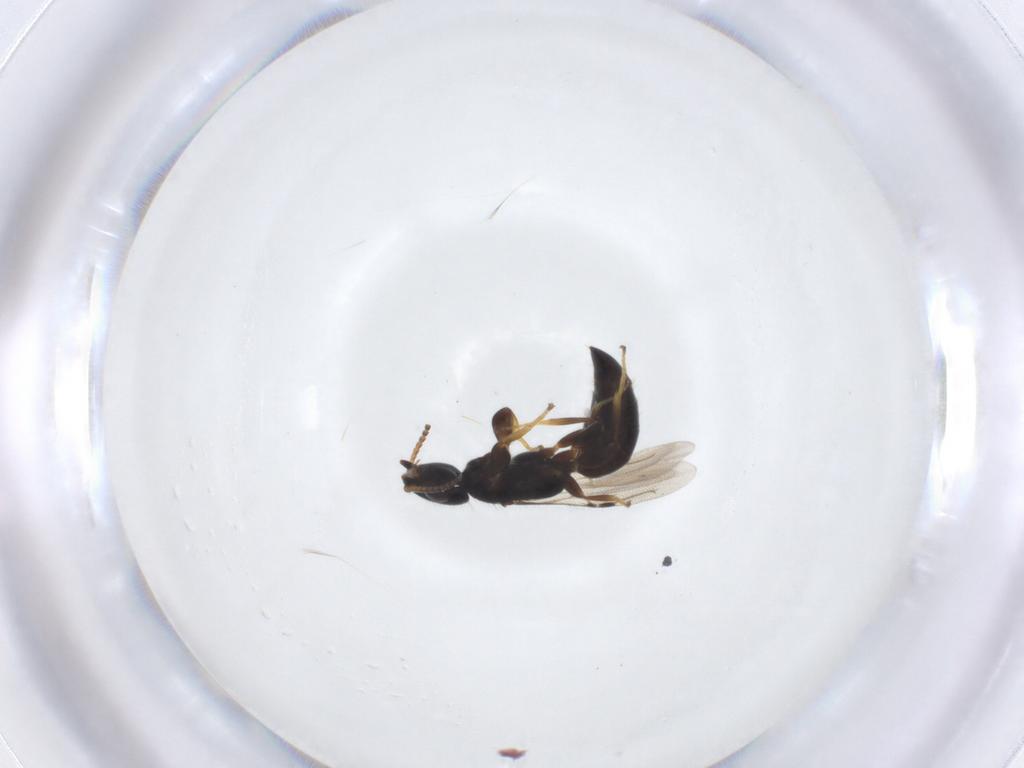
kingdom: Animalia
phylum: Arthropoda
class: Insecta
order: Hymenoptera
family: Bethylidae
